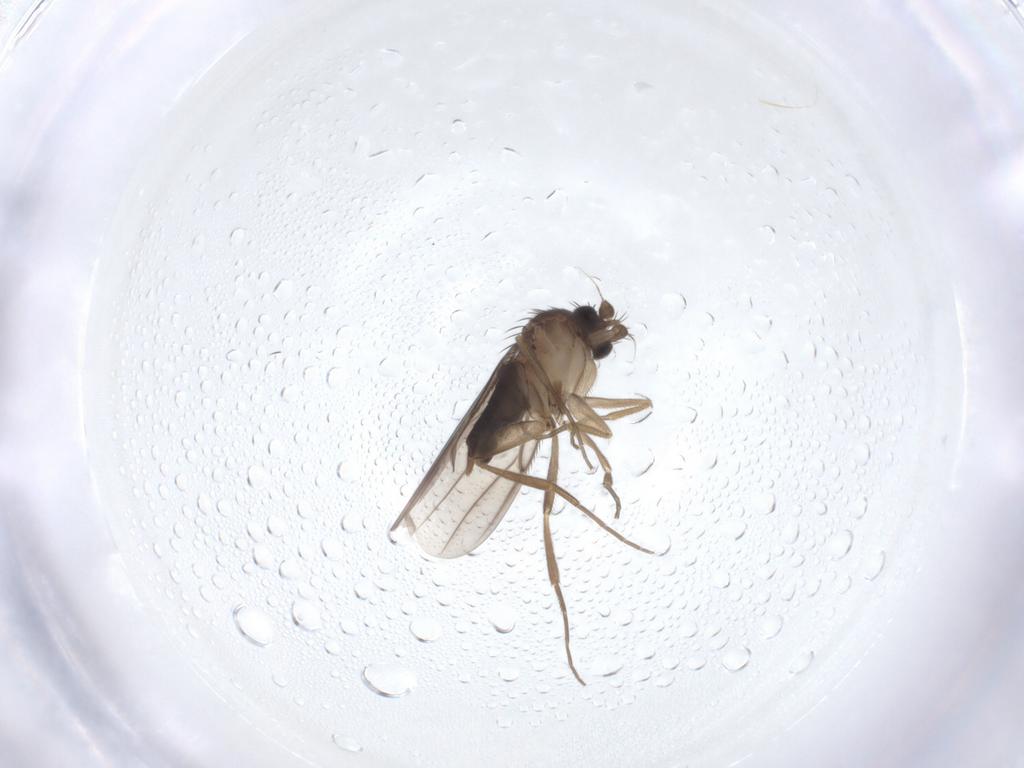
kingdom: Animalia
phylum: Arthropoda
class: Insecta
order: Diptera
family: Phoridae
